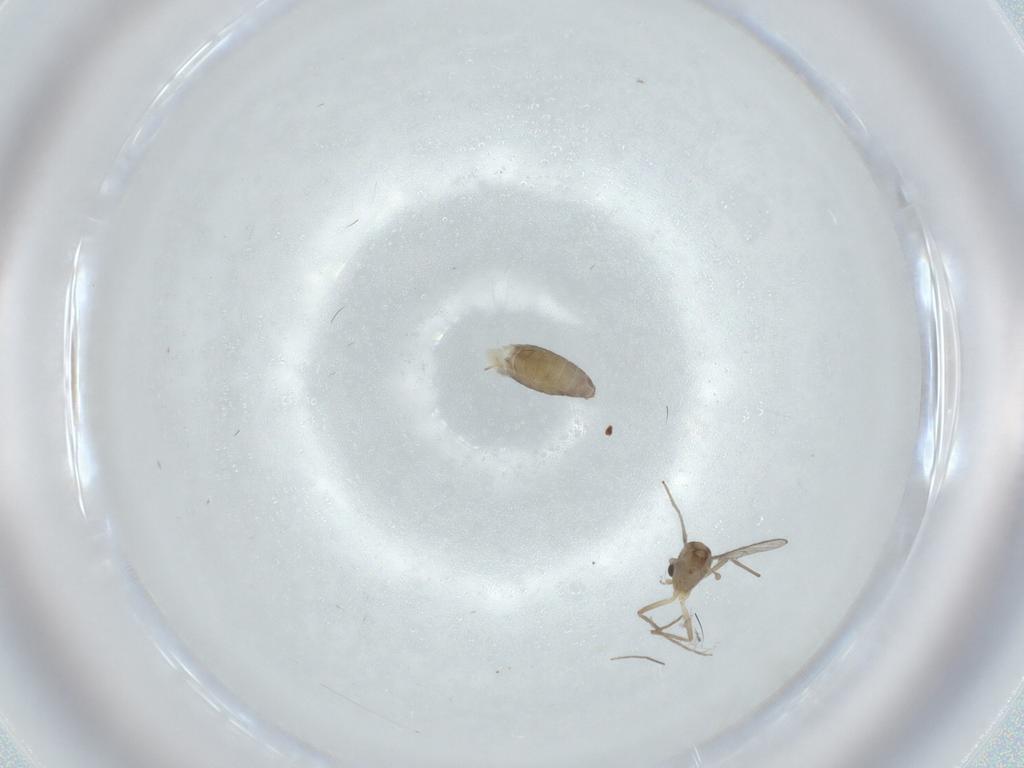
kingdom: Animalia
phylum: Arthropoda
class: Insecta
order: Diptera
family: Chironomidae
